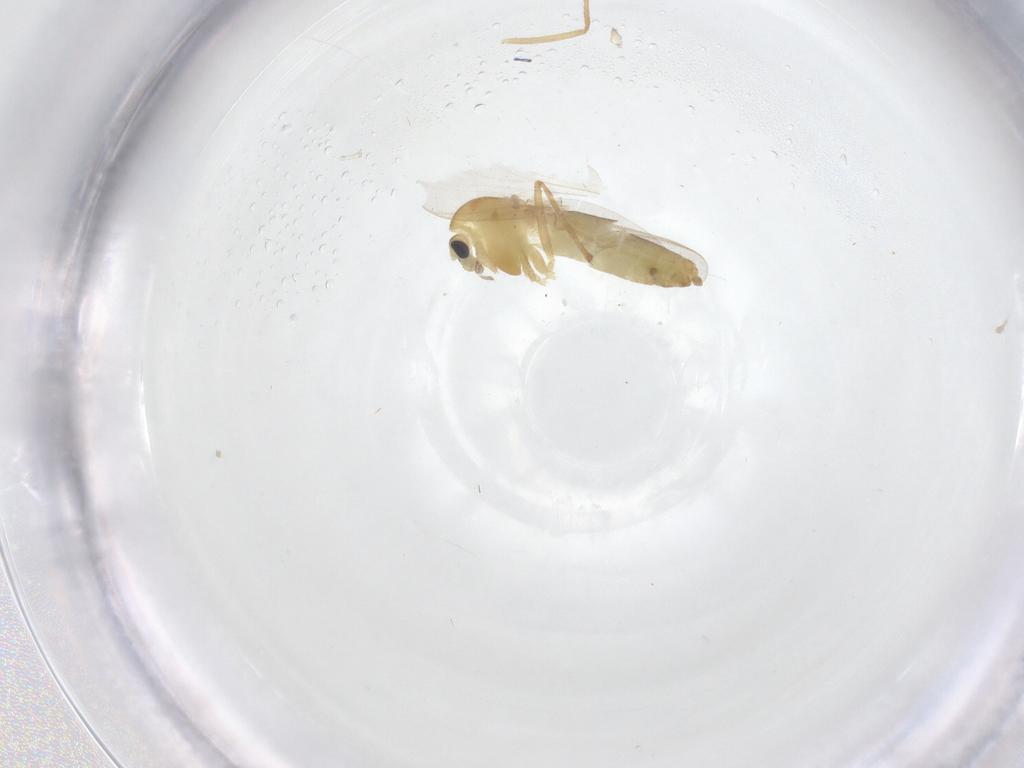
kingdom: Animalia
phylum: Arthropoda
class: Insecta
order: Diptera
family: Chironomidae
